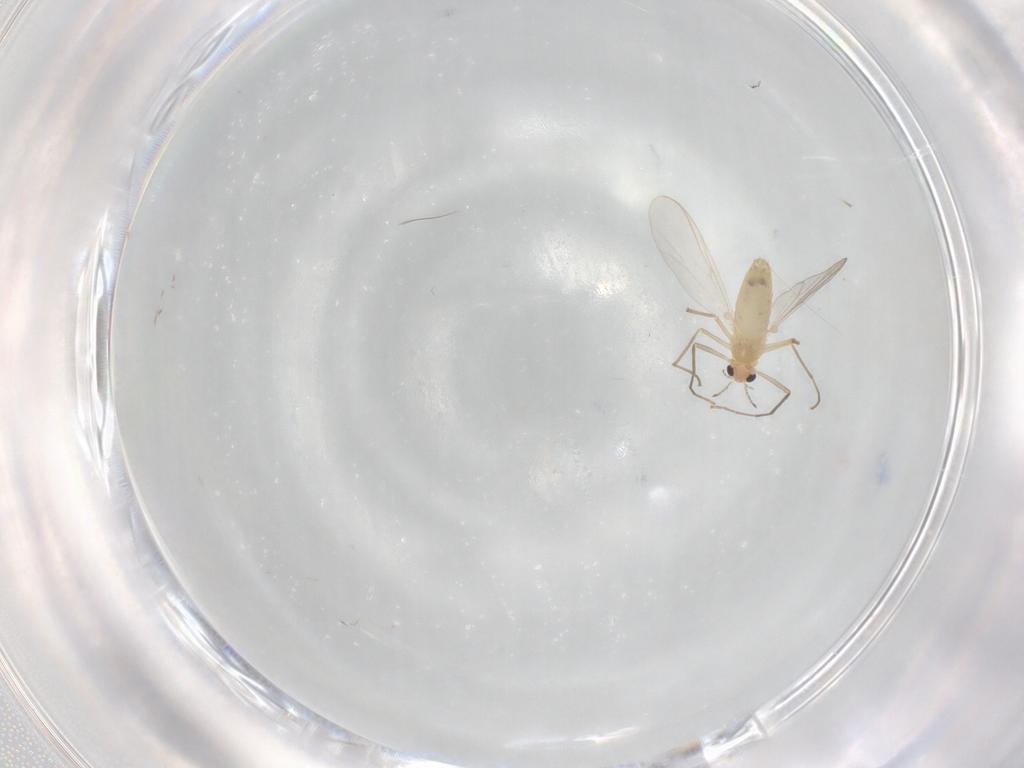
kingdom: Animalia
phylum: Arthropoda
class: Insecta
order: Diptera
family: Chironomidae
